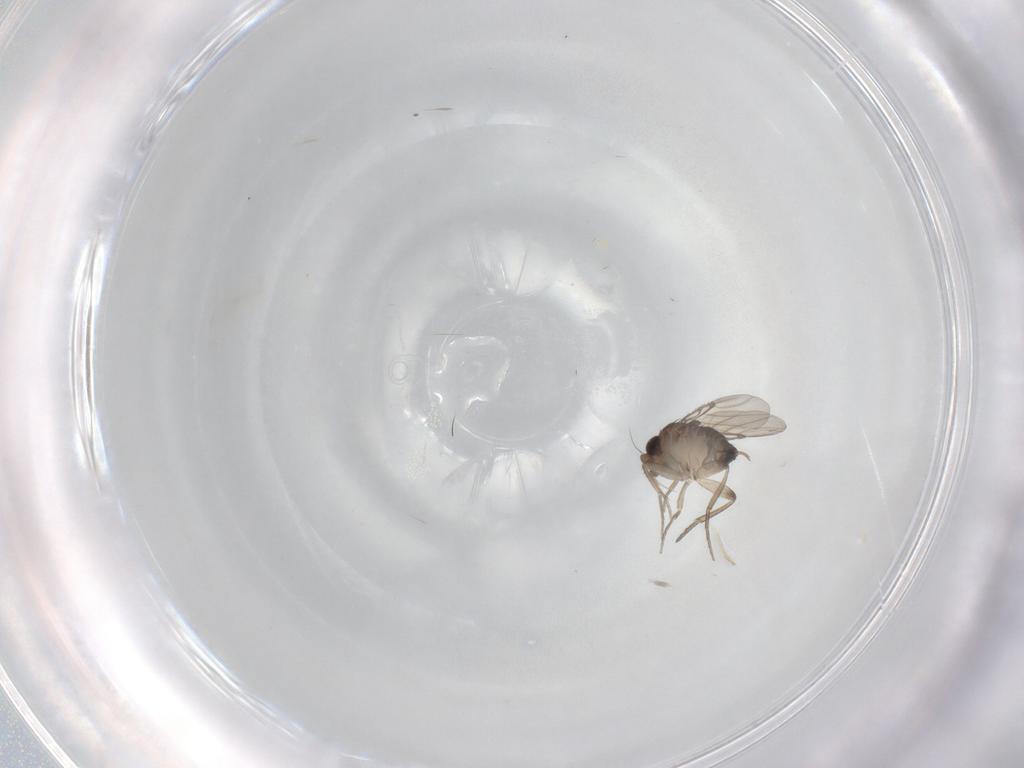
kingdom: Animalia
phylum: Arthropoda
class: Insecta
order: Diptera
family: Phoridae
